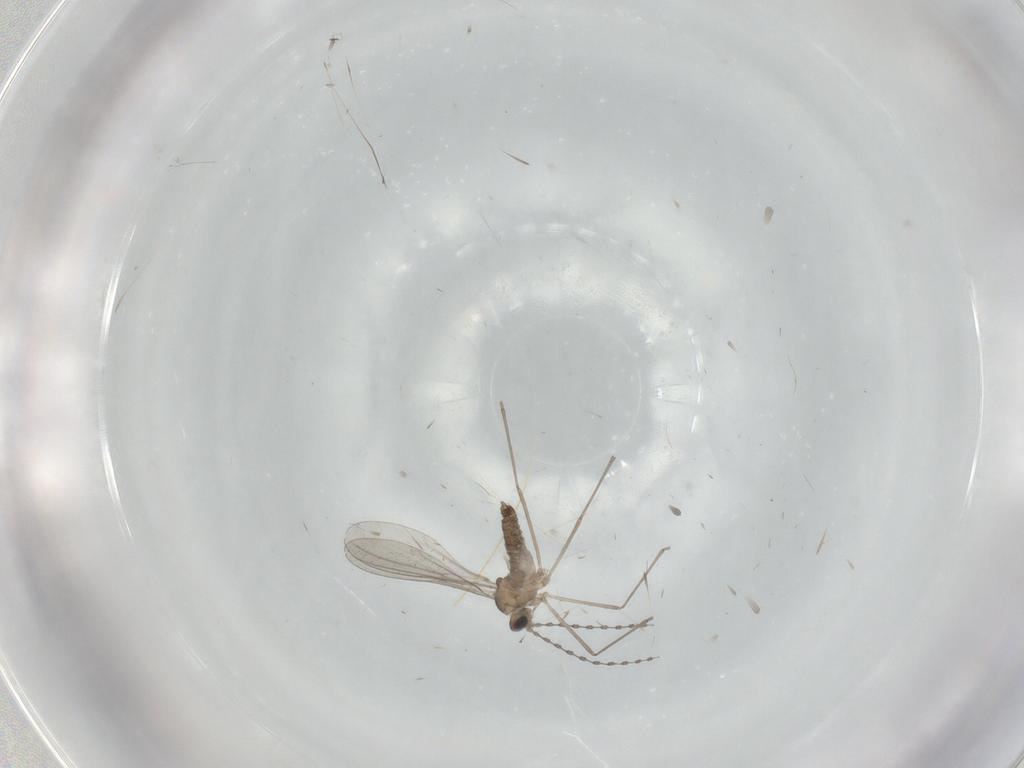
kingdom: Animalia
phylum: Arthropoda
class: Insecta
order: Diptera
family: Cecidomyiidae
